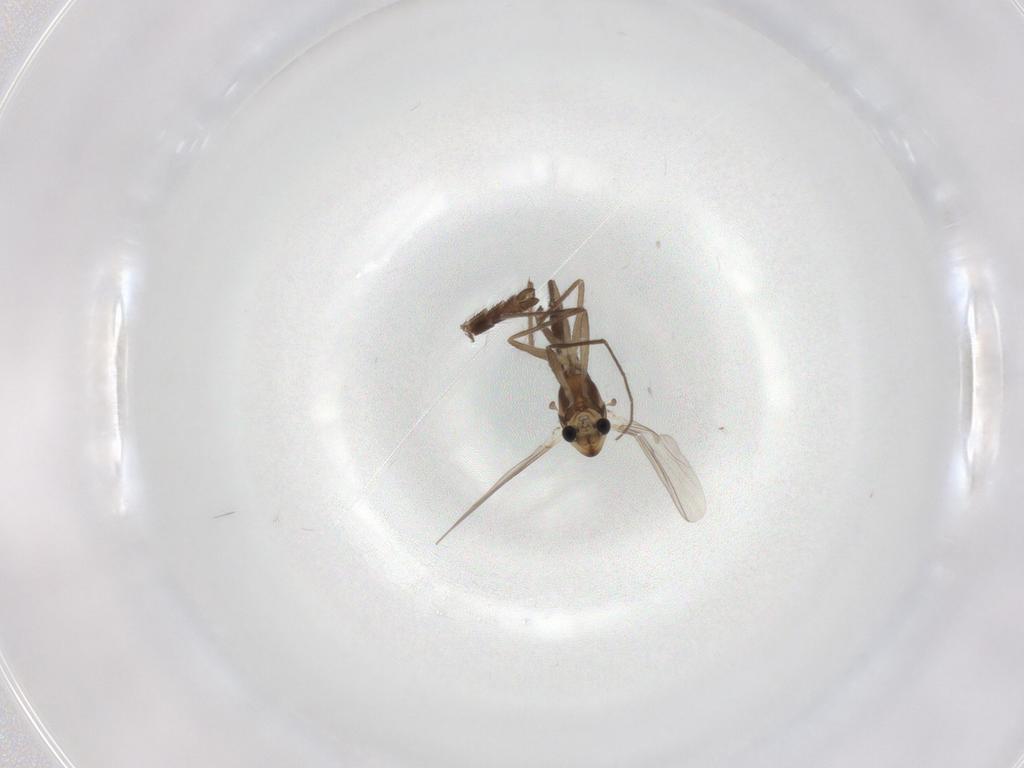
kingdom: Animalia
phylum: Arthropoda
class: Insecta
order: Diptera
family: Chironomidae
